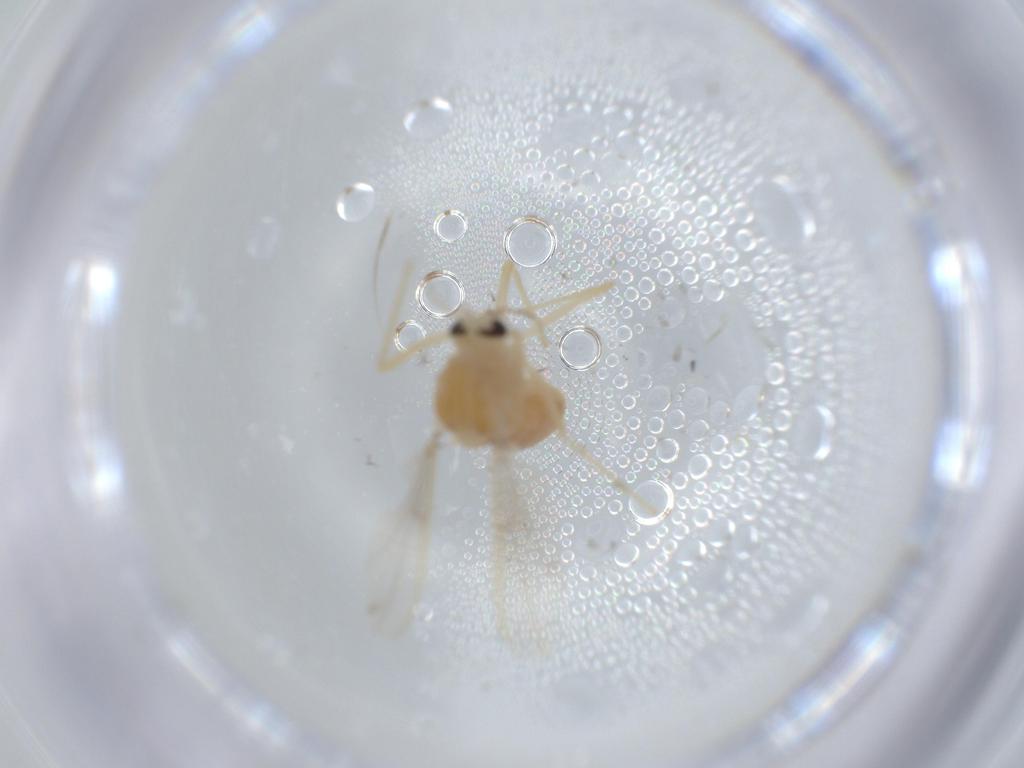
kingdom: Animalia
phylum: Arthropoda
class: Insecta
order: Diptera
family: Chironomidae
